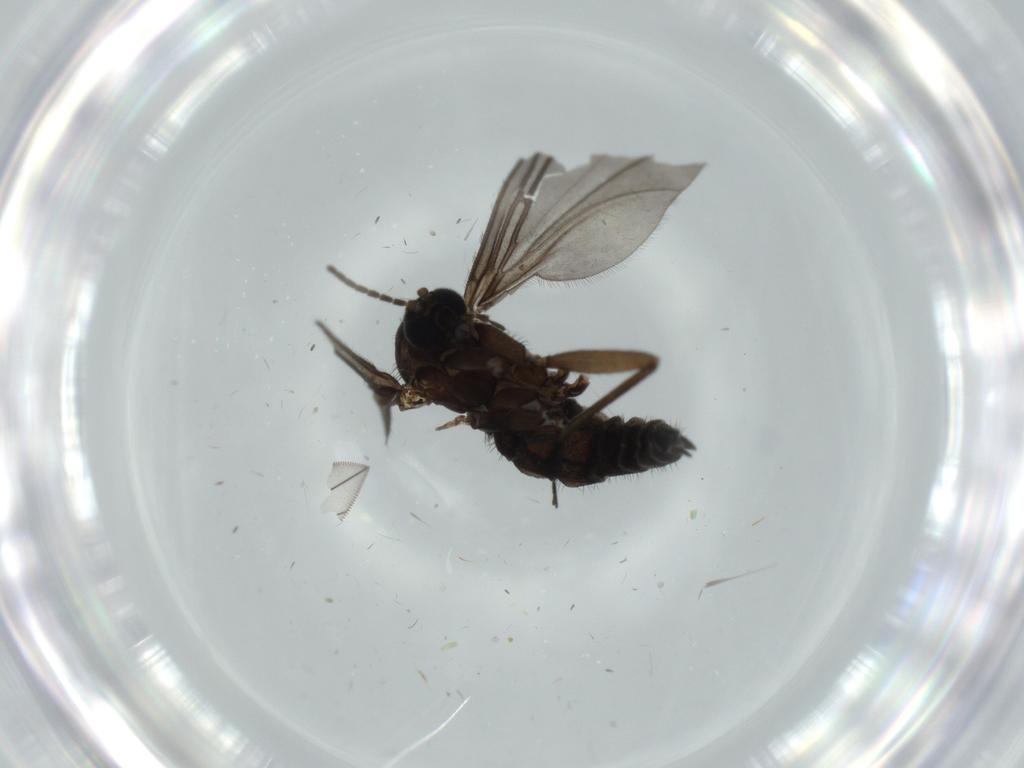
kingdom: Animalia
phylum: Arthropoda
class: Insecta
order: Diptera
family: Sciaridae
